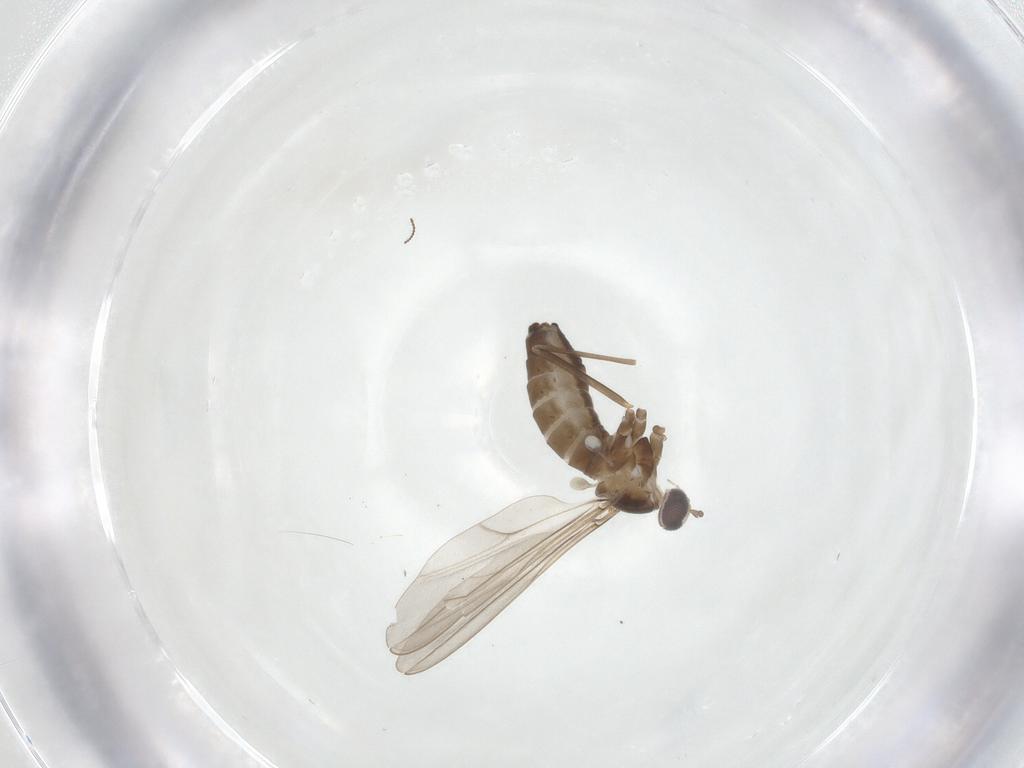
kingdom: Animalia
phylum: Arthropoda
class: Insecta
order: Diptera
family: Cecidomyiidae
